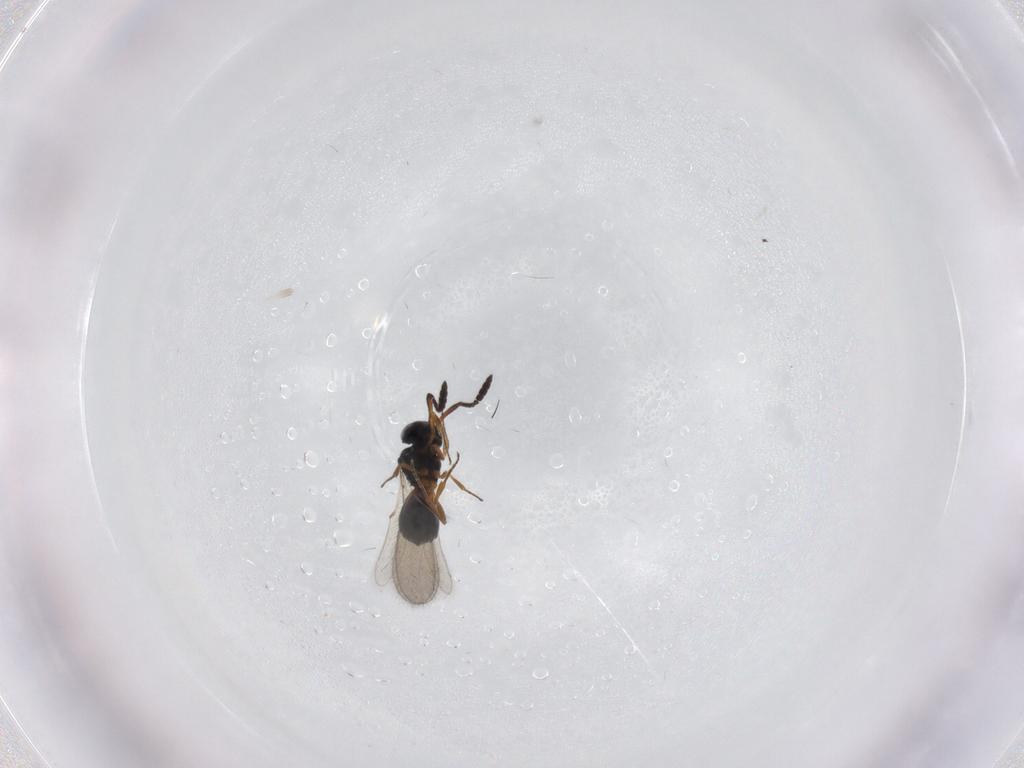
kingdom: Animalia
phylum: Arthropoda
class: Insecta
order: Hymenoptera
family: Scelionidae
